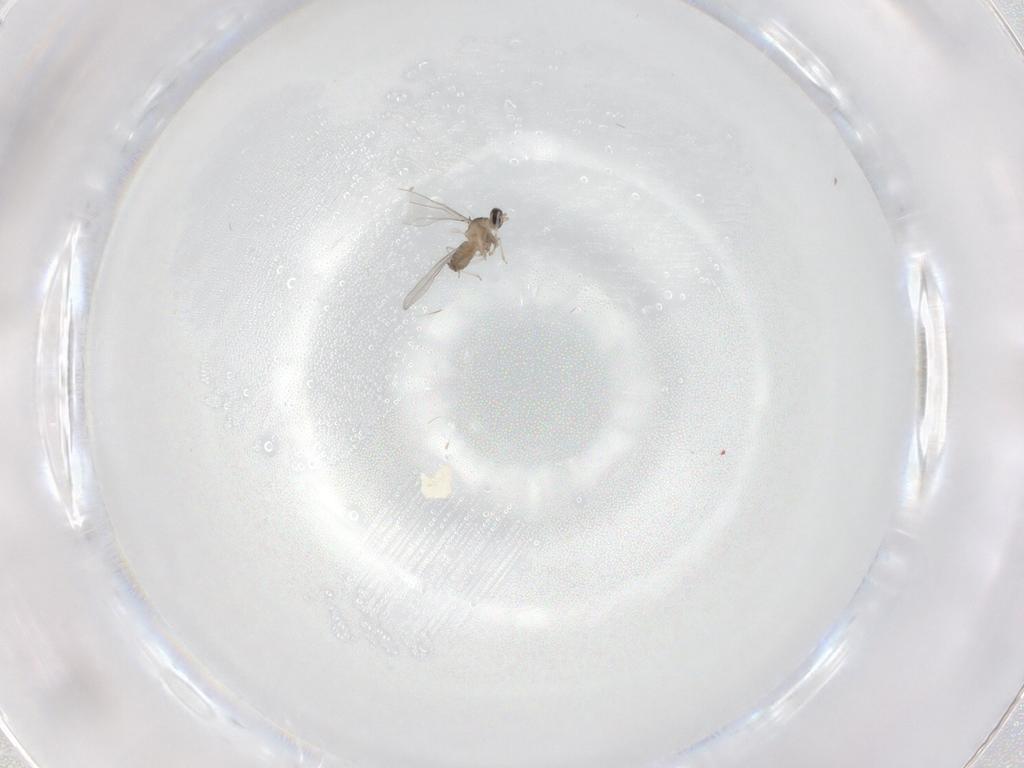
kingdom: Animalia
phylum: Arthropoda
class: Insecta
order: Diptera
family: Cecidomyiidae
